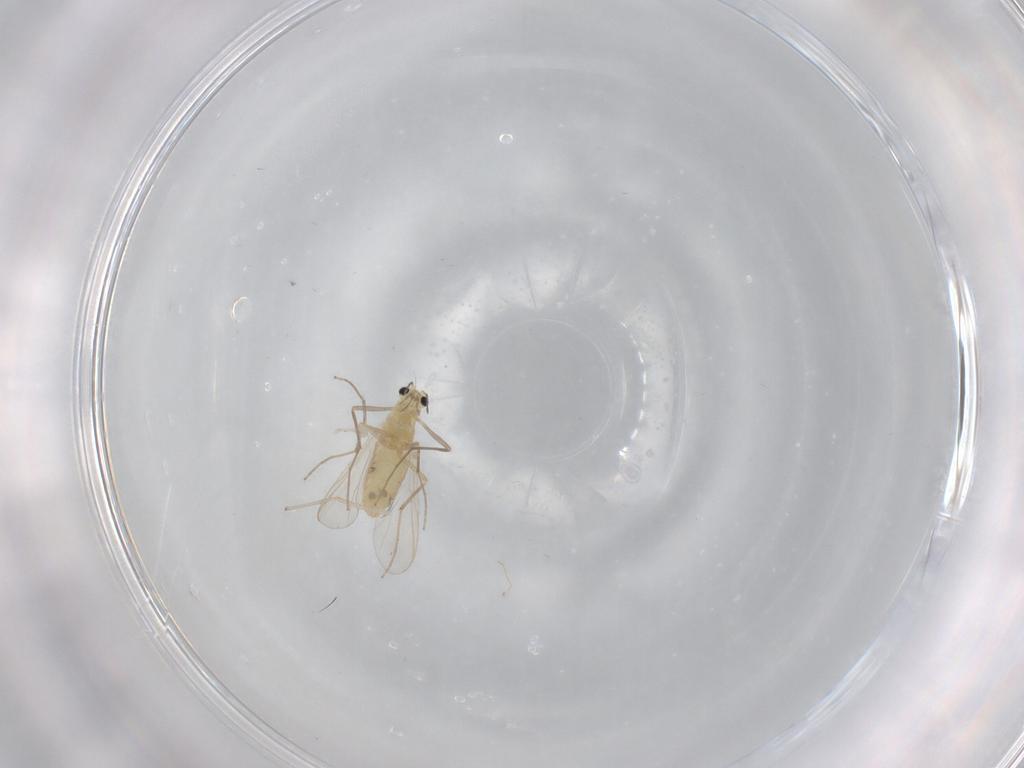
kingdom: Animalia
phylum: Arthropoda
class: Insecta
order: Diptera
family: Chironomidae
